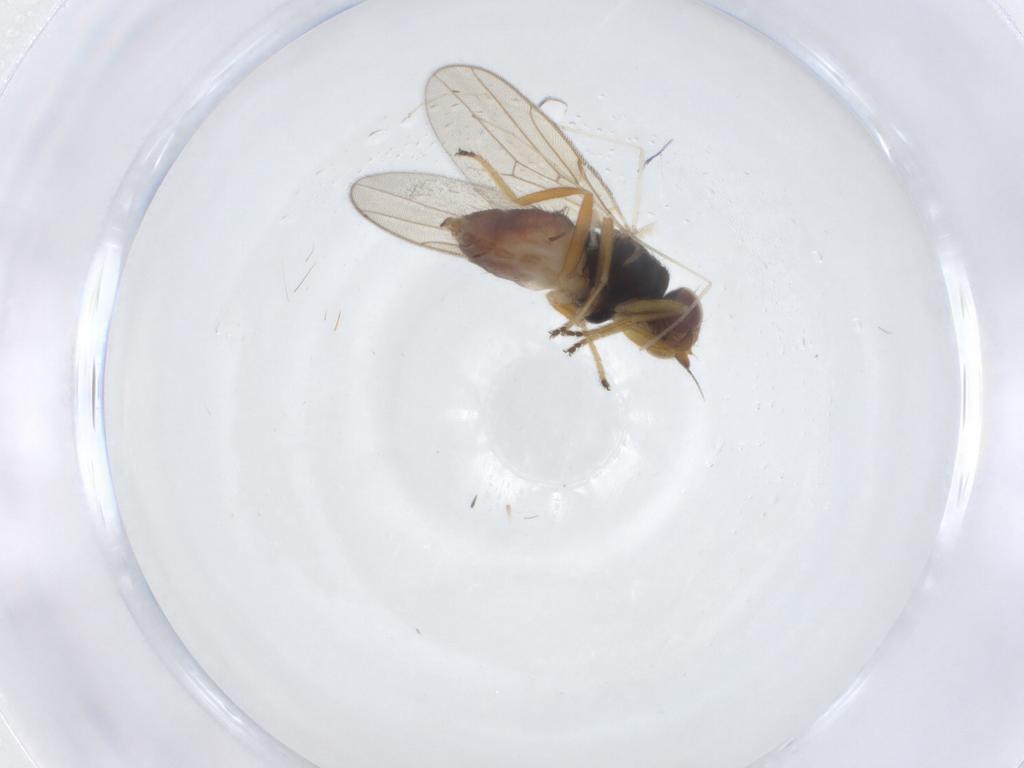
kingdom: Animalia
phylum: Arthropoda
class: Insecta
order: Diptera
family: Chloropidae
